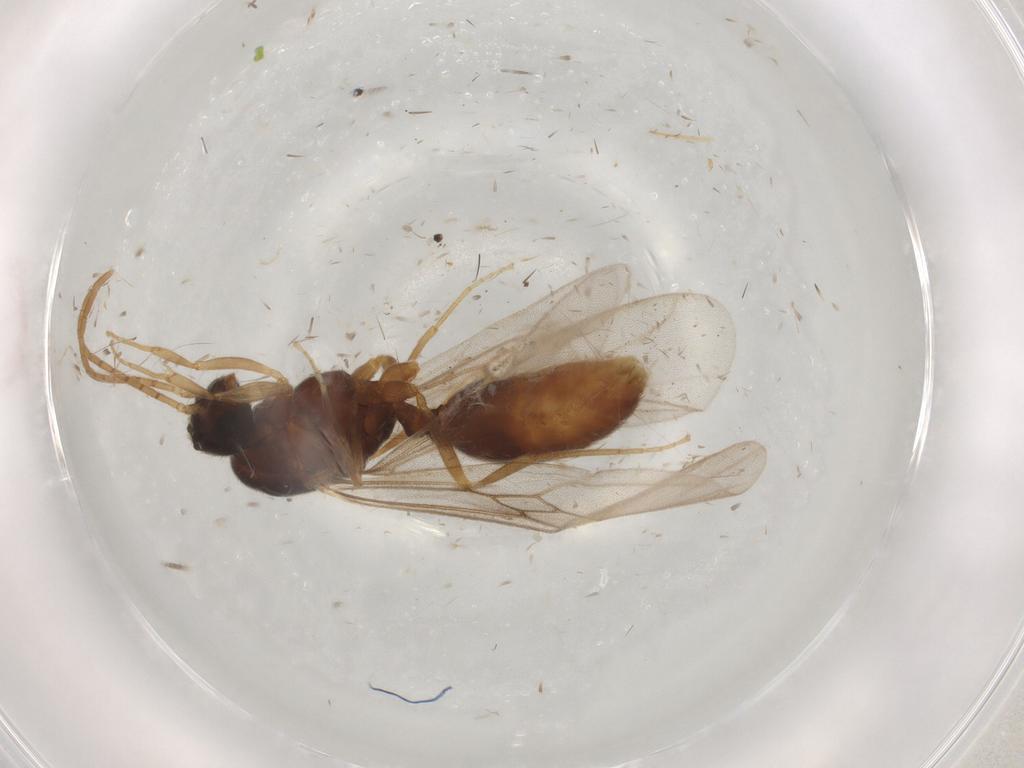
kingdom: Animalia
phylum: Arthropoda
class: Insecta
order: Hymenoptera
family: Formicidae
